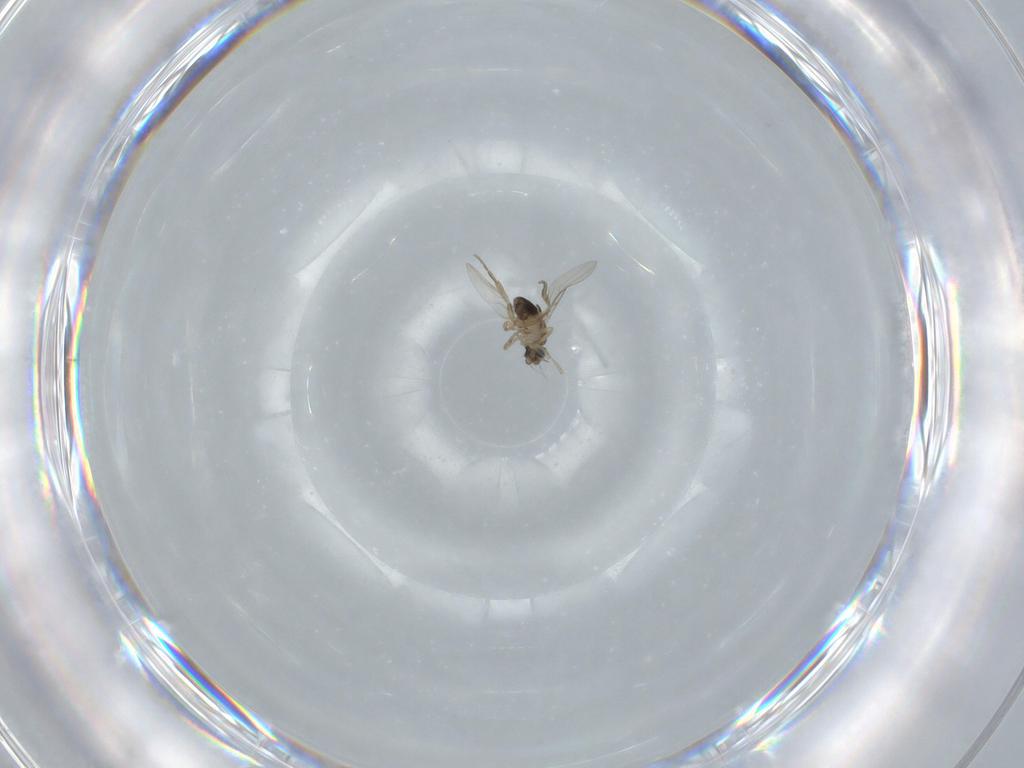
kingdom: Animalia
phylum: Arthropoda
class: Insecta
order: Diptera
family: Phoridae
